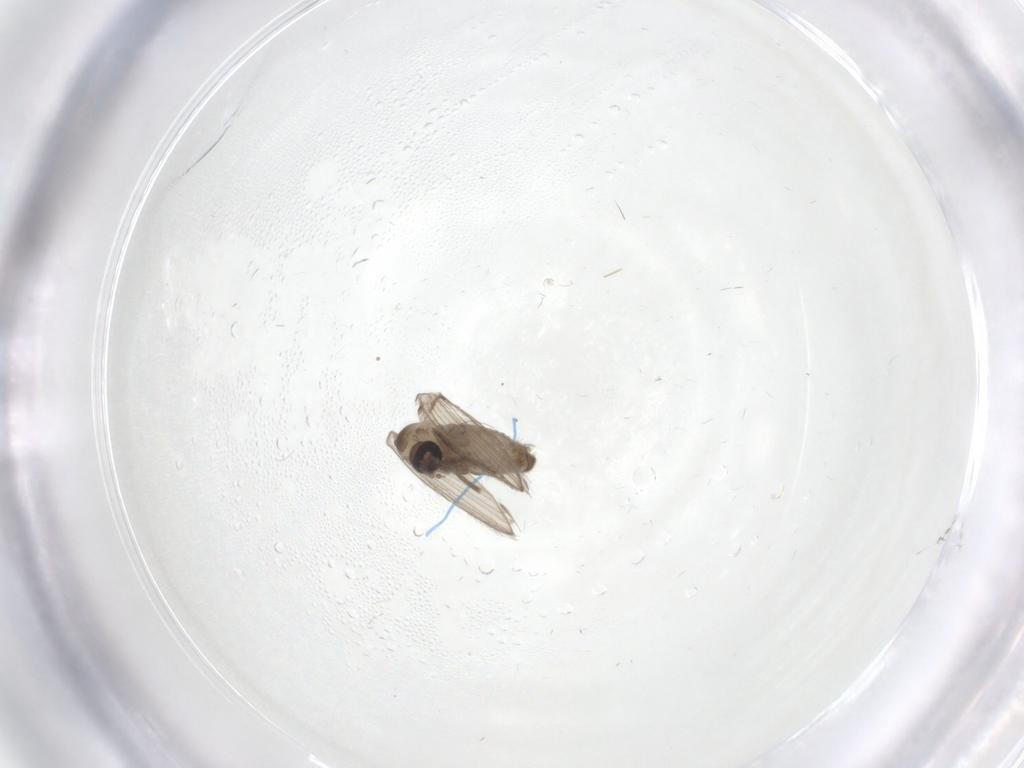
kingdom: Animalia
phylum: Arthropoda
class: Insecta
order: Diptera
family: Psychodidae
